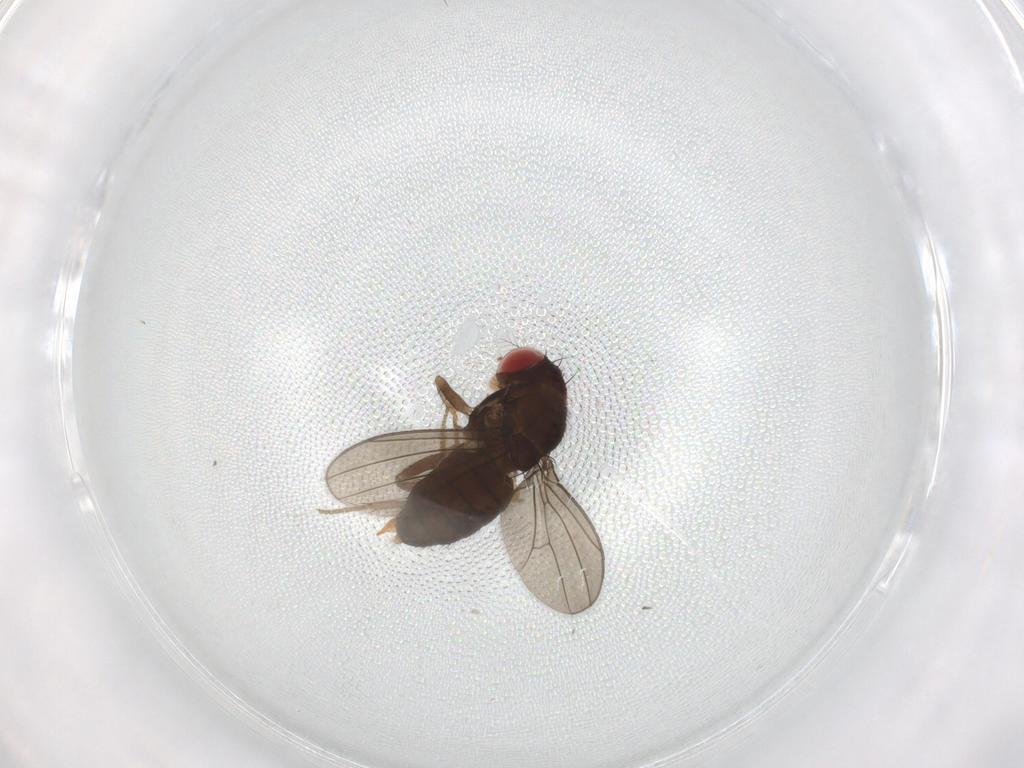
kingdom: Animalia
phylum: Arthropoda
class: Insecta
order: Diptera
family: Drosophilidae
